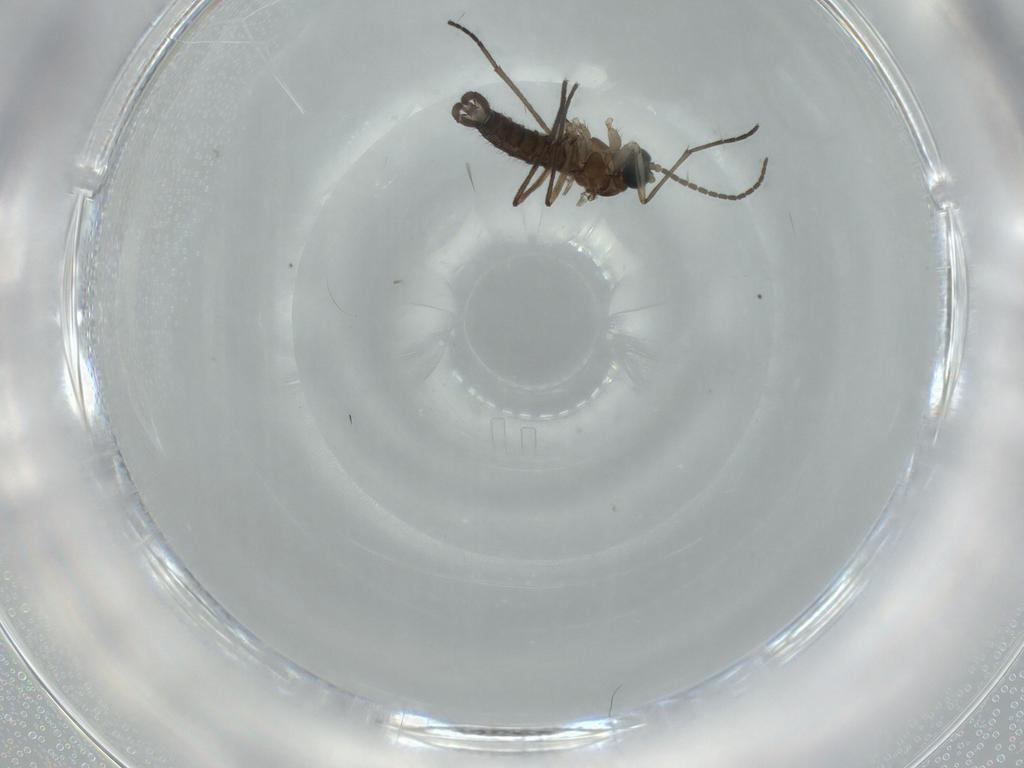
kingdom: Animalia
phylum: Arthropoda
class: Insecta
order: Diptera
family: Sciaridae
